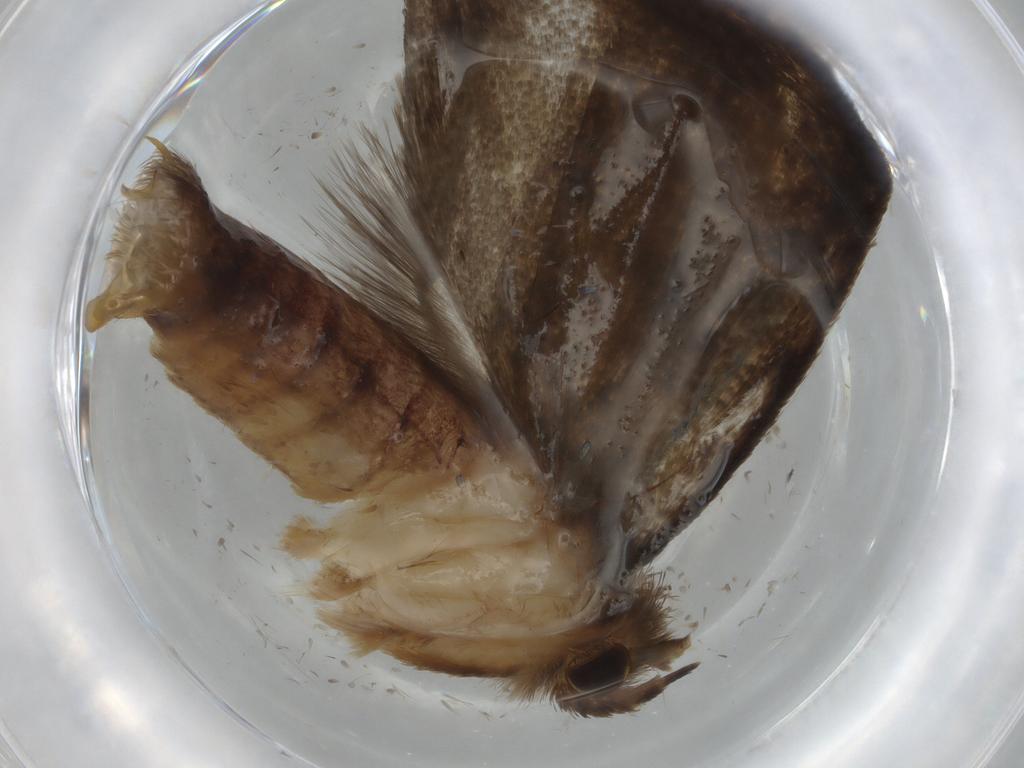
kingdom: Animalia
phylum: Arthropoda
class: Insecta
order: Lepidoptera
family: Tineidae
